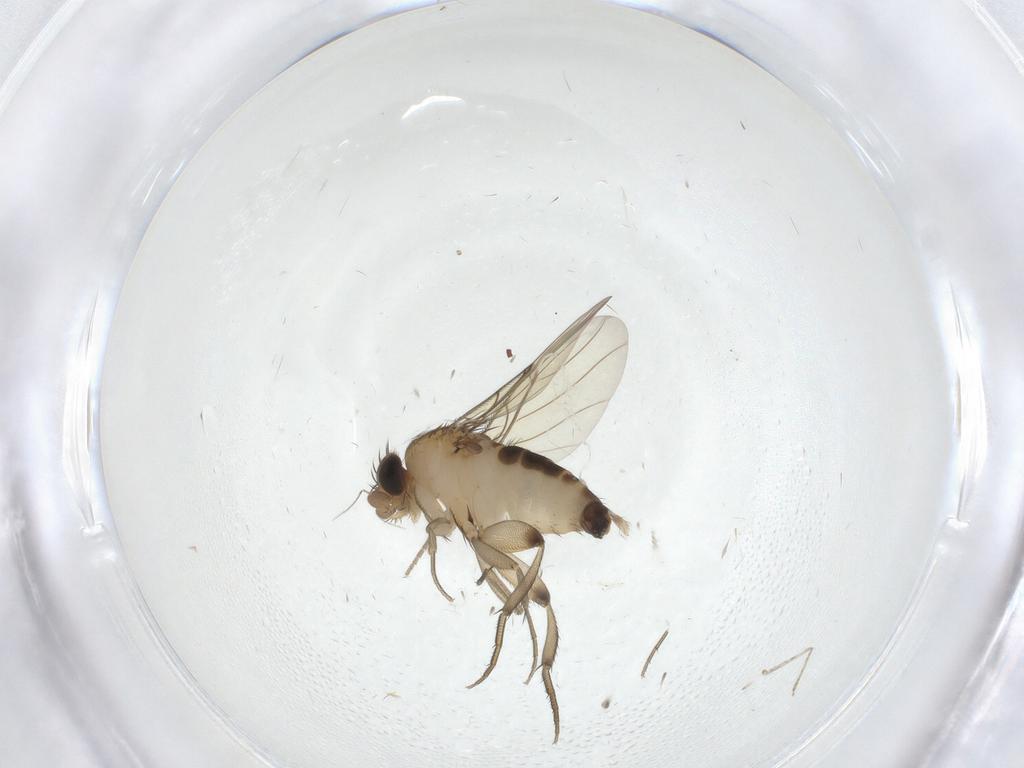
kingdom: Animalia
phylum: Arthropoda
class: Insecta
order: Diptera
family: Phoridae
